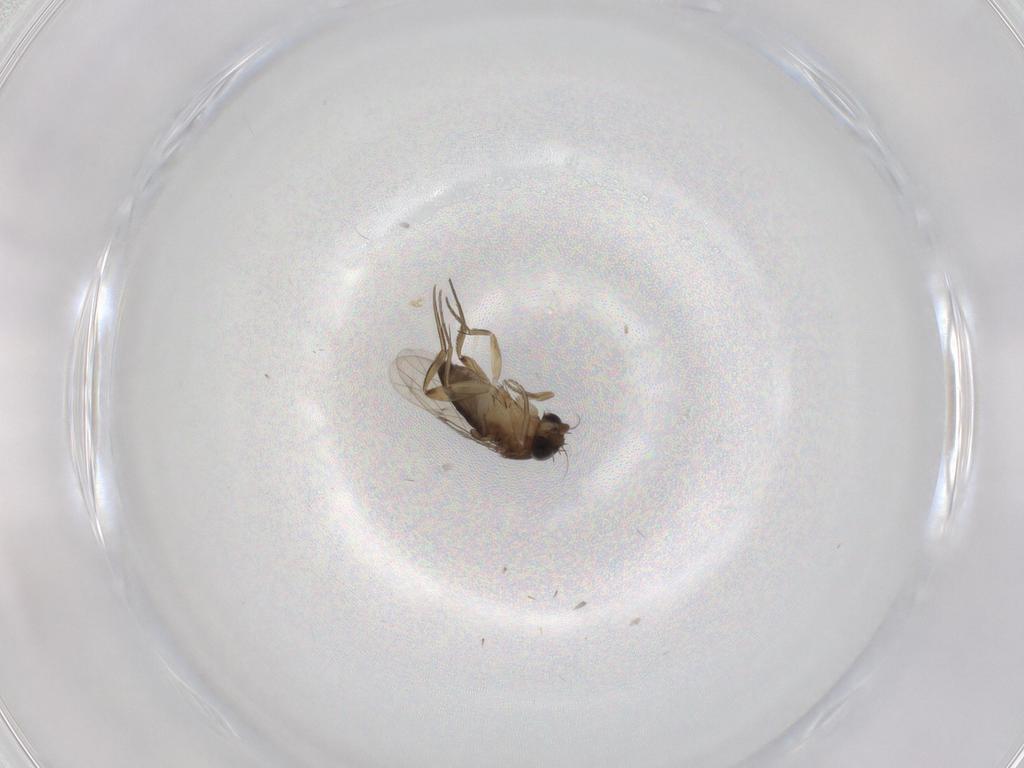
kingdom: Animalia
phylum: Arthropoda
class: Insecta
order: Diptera
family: Phoridae
